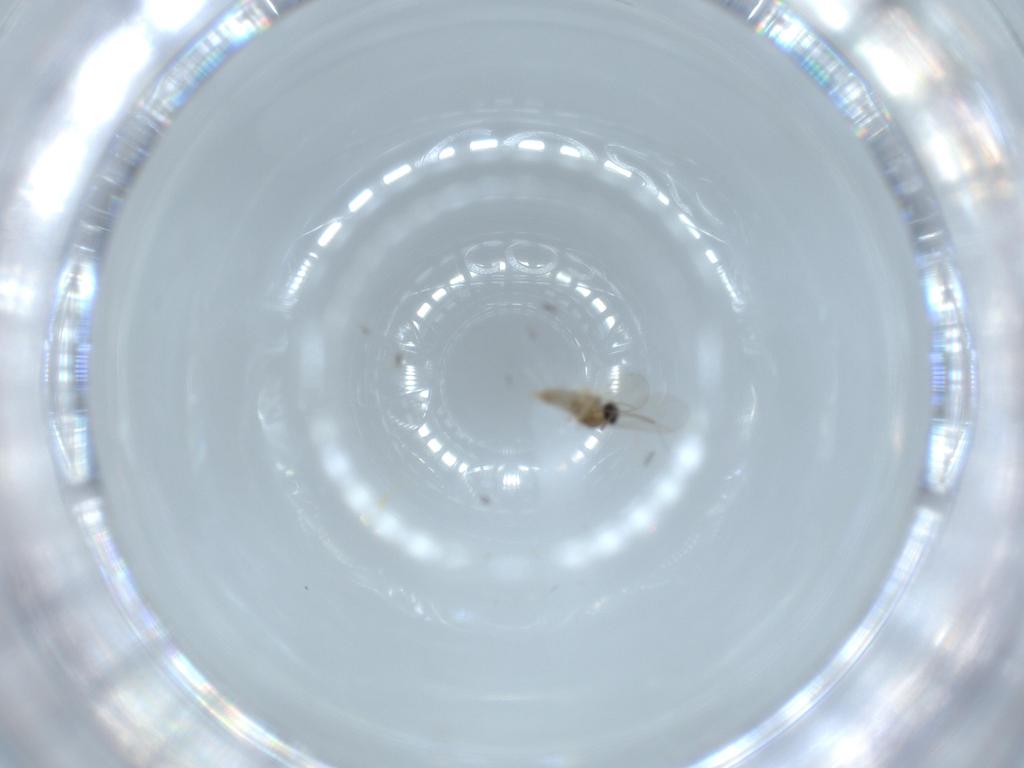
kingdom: Animalia
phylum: Arthropoda
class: Insecta
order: Diptera
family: Cecidomyiidae
